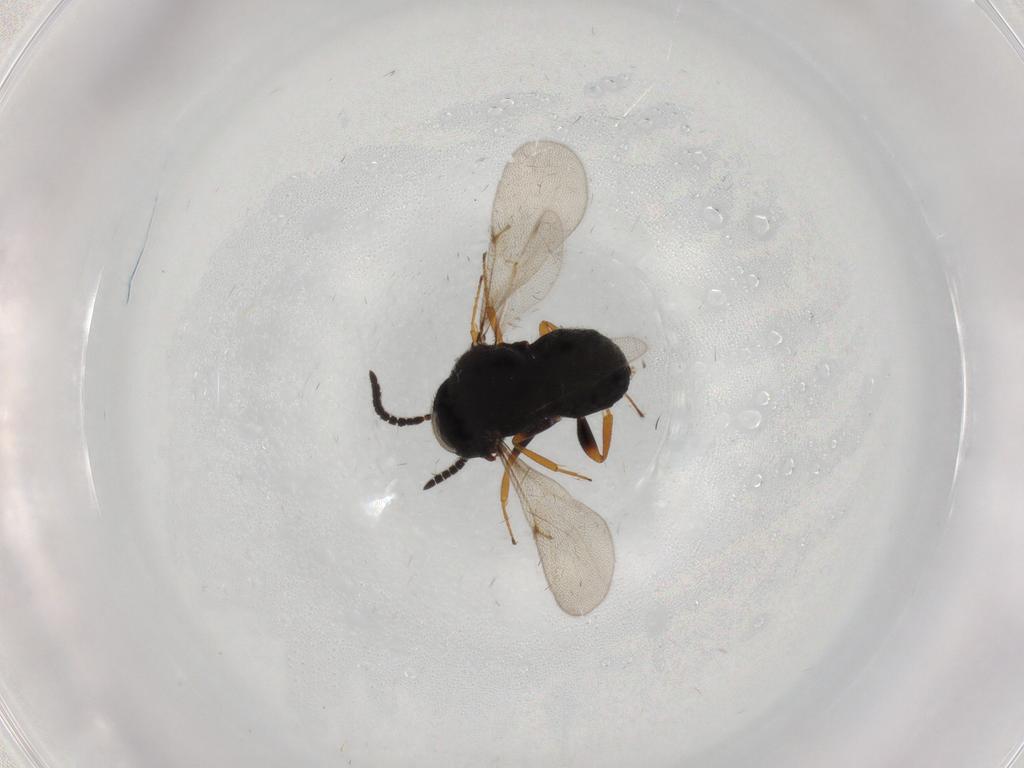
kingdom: Animalia
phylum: Arthropoda
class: Insecta
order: Hymenoptera
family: Scelionidae
